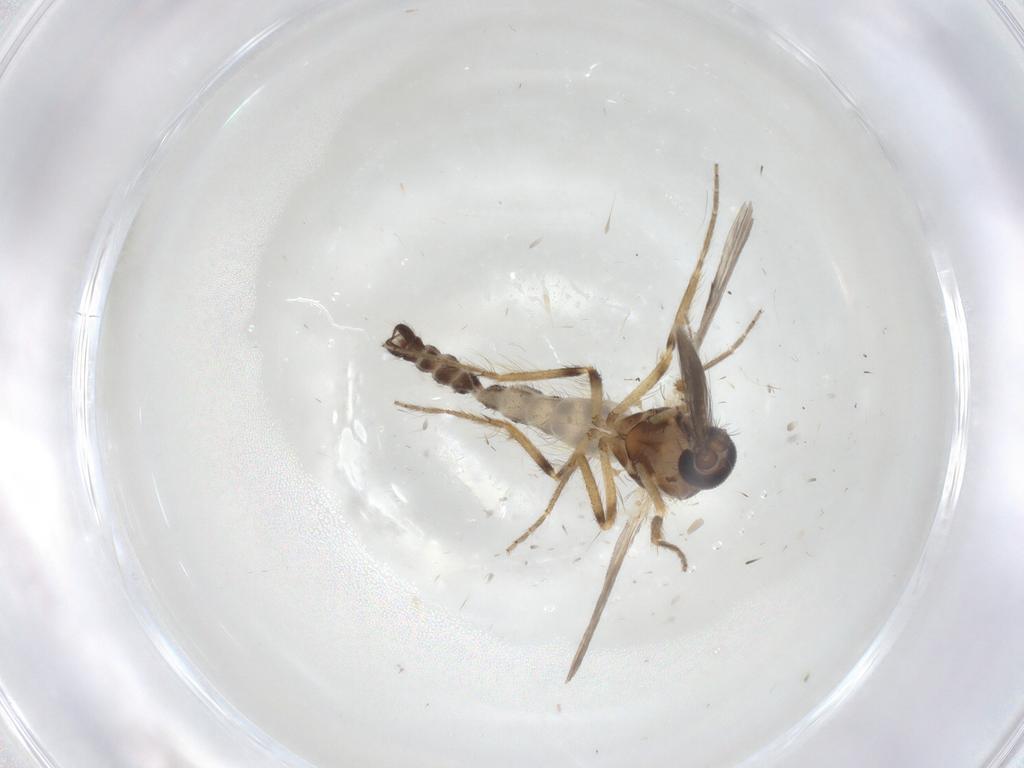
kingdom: Animalia
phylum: Arthropoda
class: Insecta
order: Diptera
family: Ceratopogonidae
